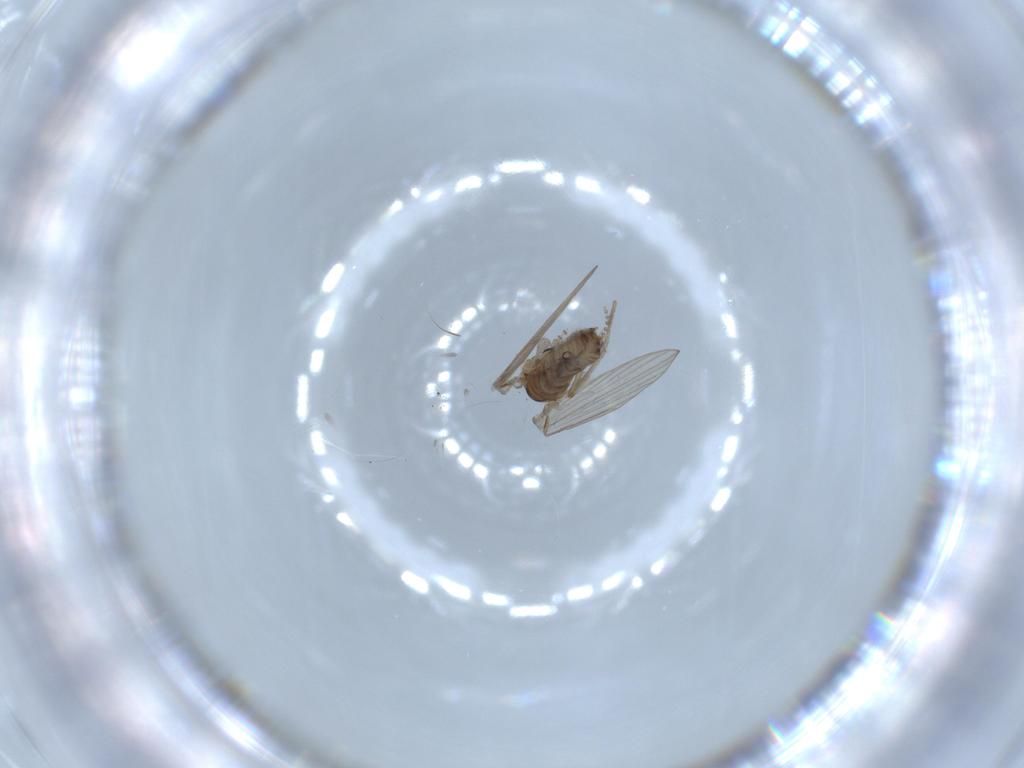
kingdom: Animalia
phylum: Arthropoda
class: Insecta
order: Diptera
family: Psychodidae
